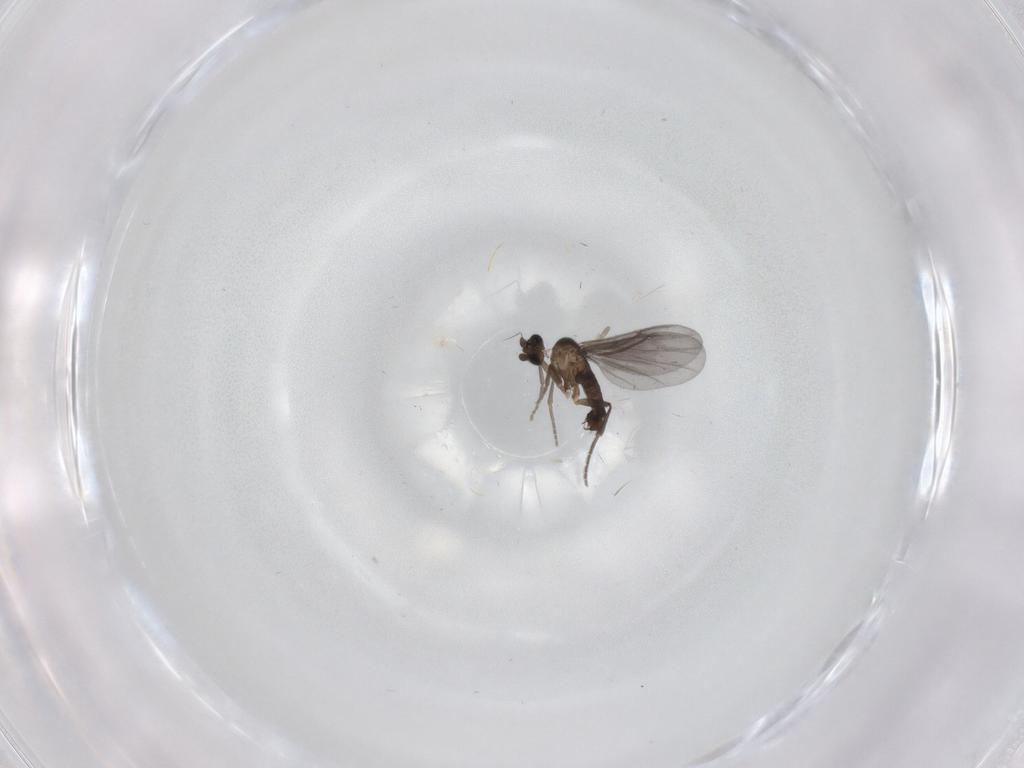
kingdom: Animalia
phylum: Arthropoda
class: Insecta
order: Diptera
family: Phoridae
